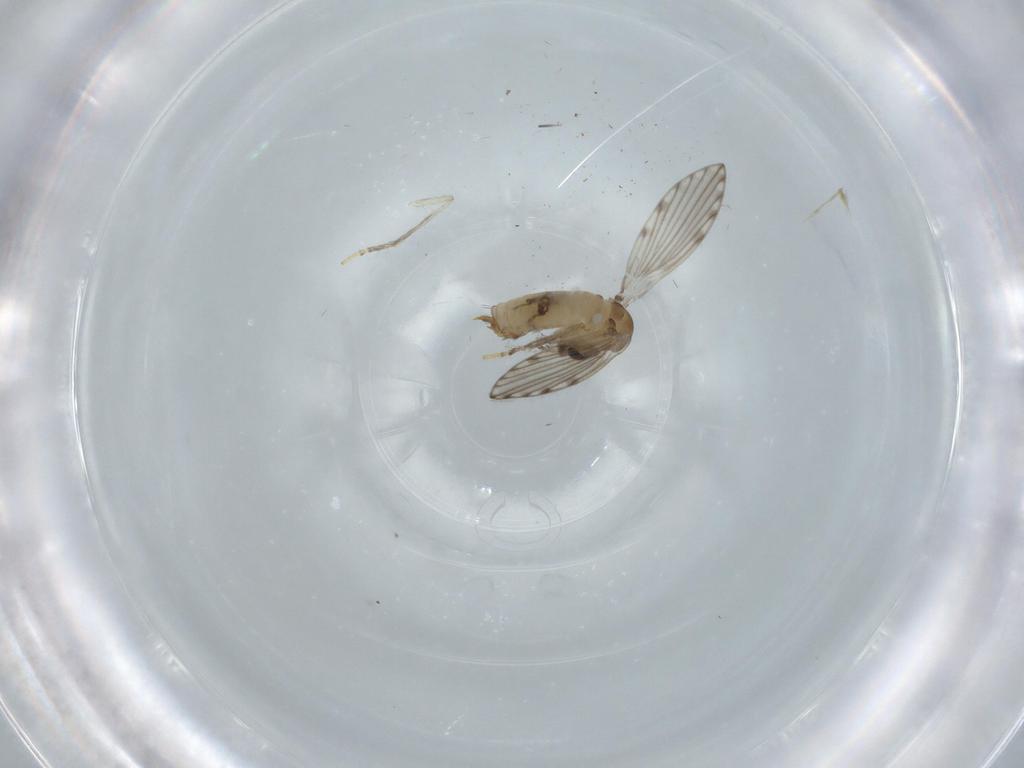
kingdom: Animalia
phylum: Arthropoda
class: Insecta
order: Diptera
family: Psychodidae
